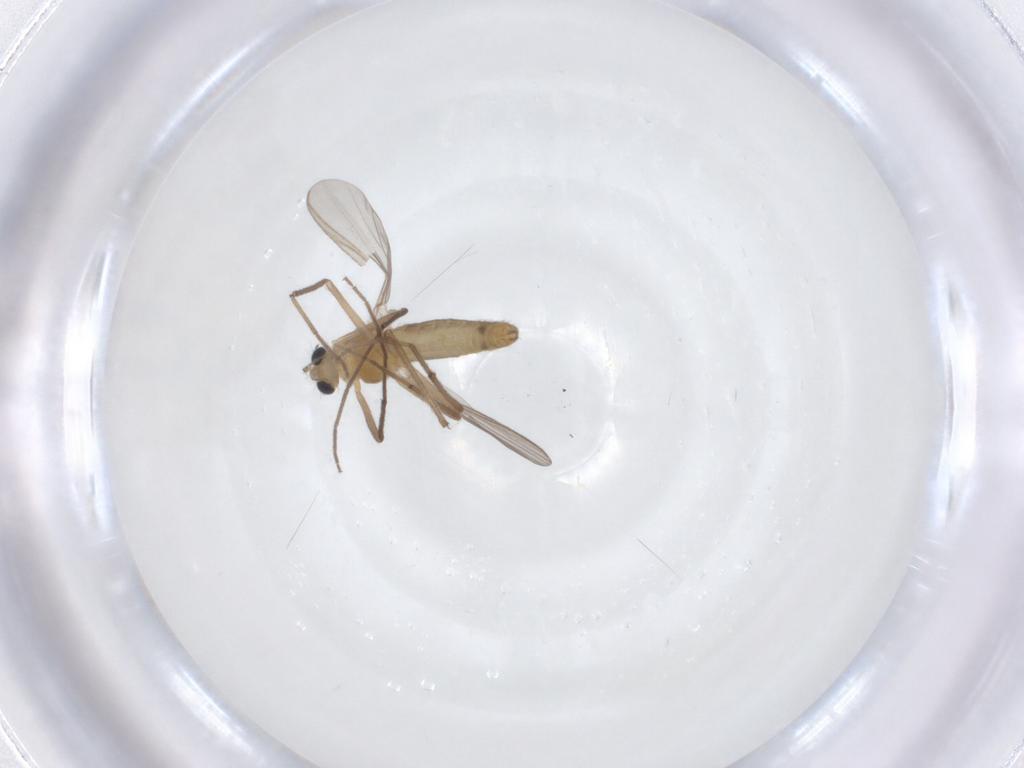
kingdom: Animalia
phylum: Arthropoda
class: Insecta
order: Diptera
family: Chironomidae
